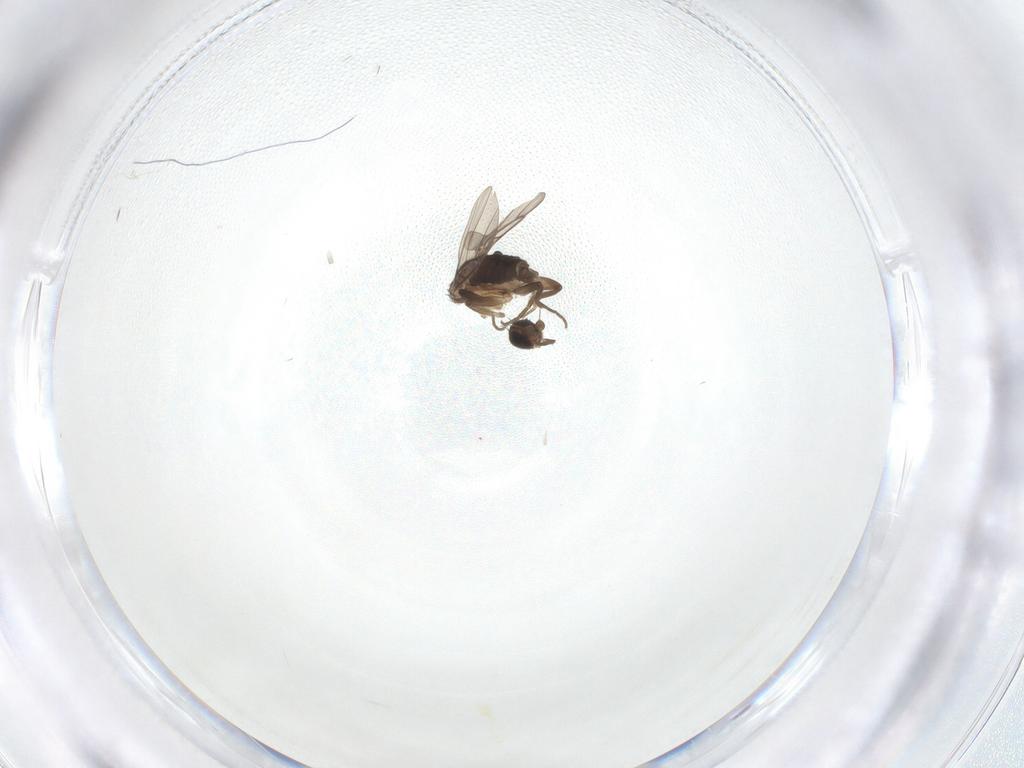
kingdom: Animalia
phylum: Arthropoda
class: Insecta
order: Diptera
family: Phoridae
